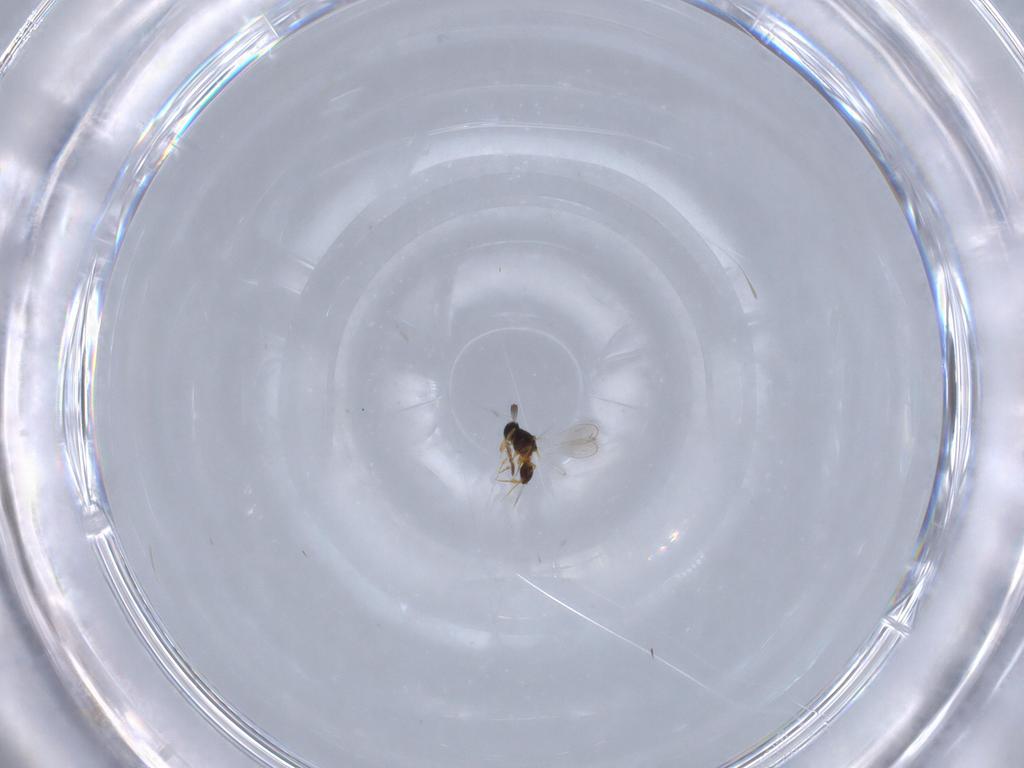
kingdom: Animalia
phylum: Arthropoda
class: Insecta
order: Hymenoptera
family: Platygastridae
